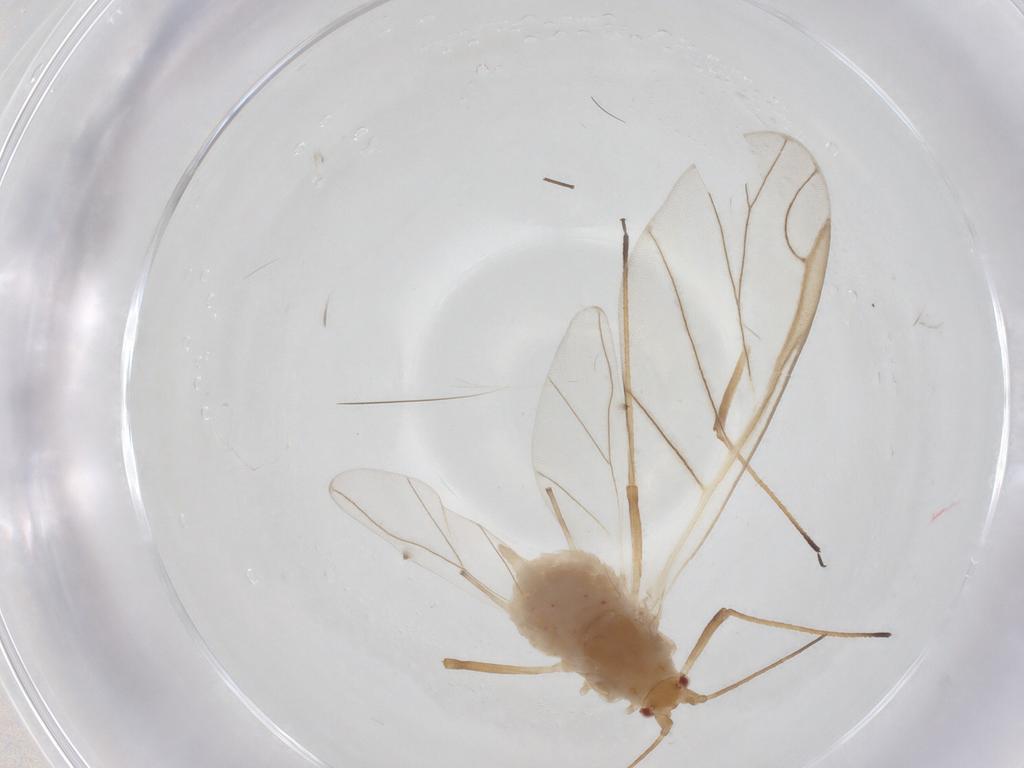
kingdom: Animalia
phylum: Arthropoda
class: Insecta
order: Hemiptera
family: Aphididae
